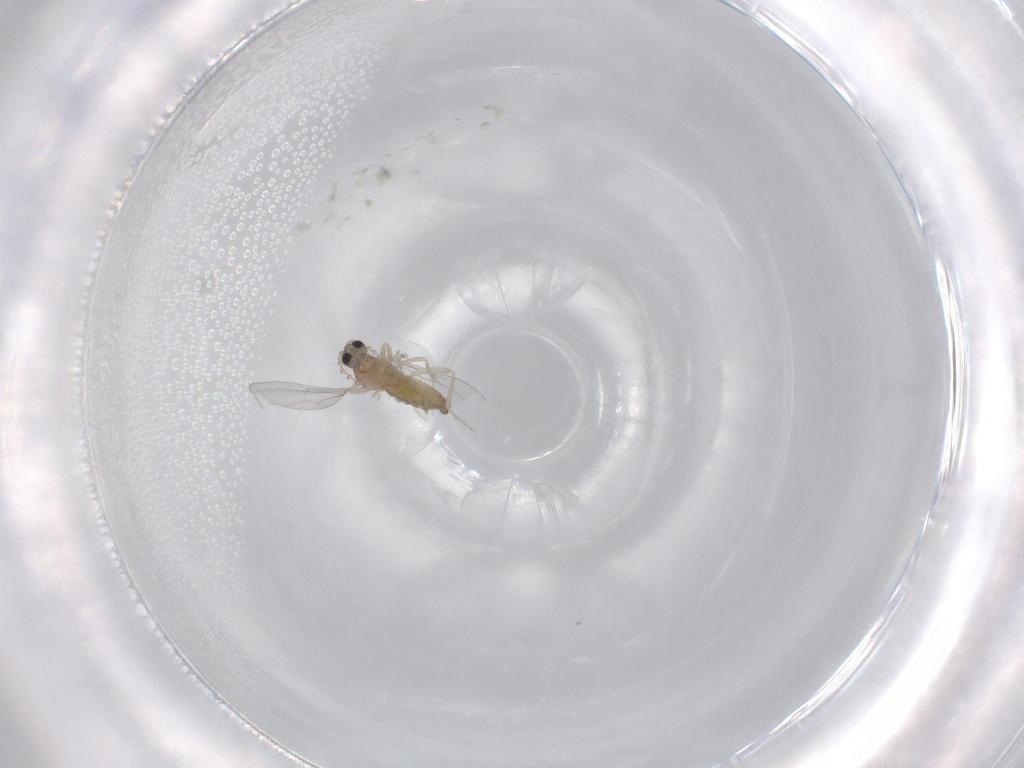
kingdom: Animalia
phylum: Arthropoda
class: Insecta
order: Diptera
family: Cecidomyiidae
